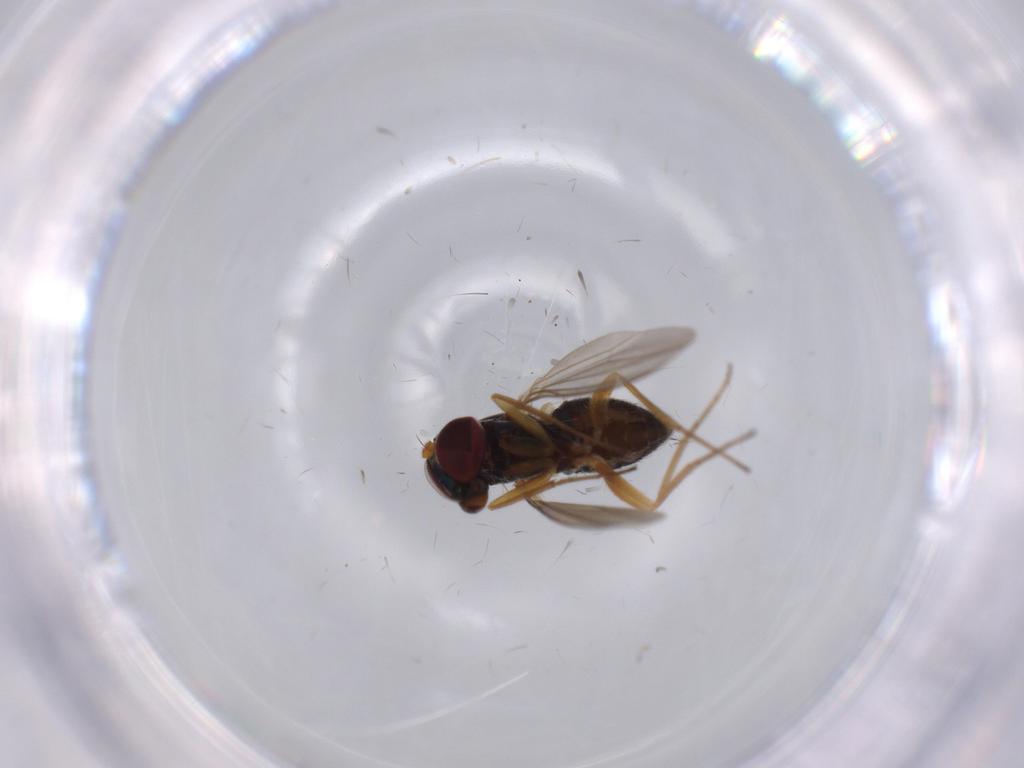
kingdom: Animalia
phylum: Arthropoda
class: Insecta
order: Diptera
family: Dolichopodidae
